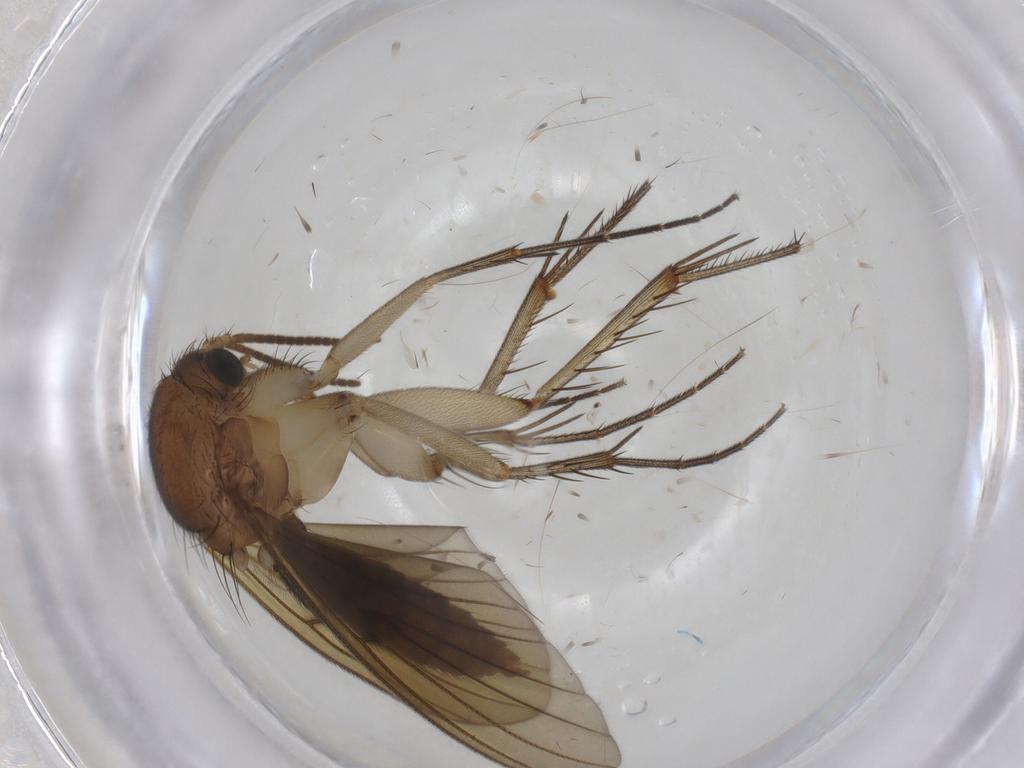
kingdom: Animalia
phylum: Arthropoda
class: Insecta
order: Diptera
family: Mycetophilidae
